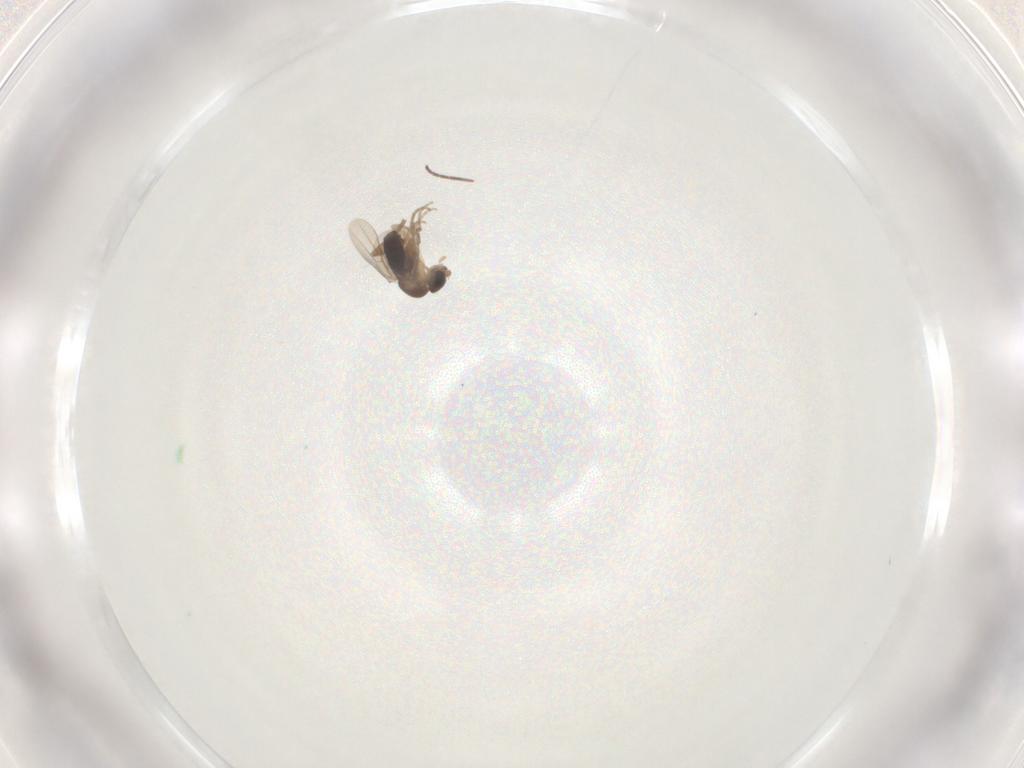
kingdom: Animalia
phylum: Arthropoda
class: Insecta
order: Diptera
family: Phoridae
